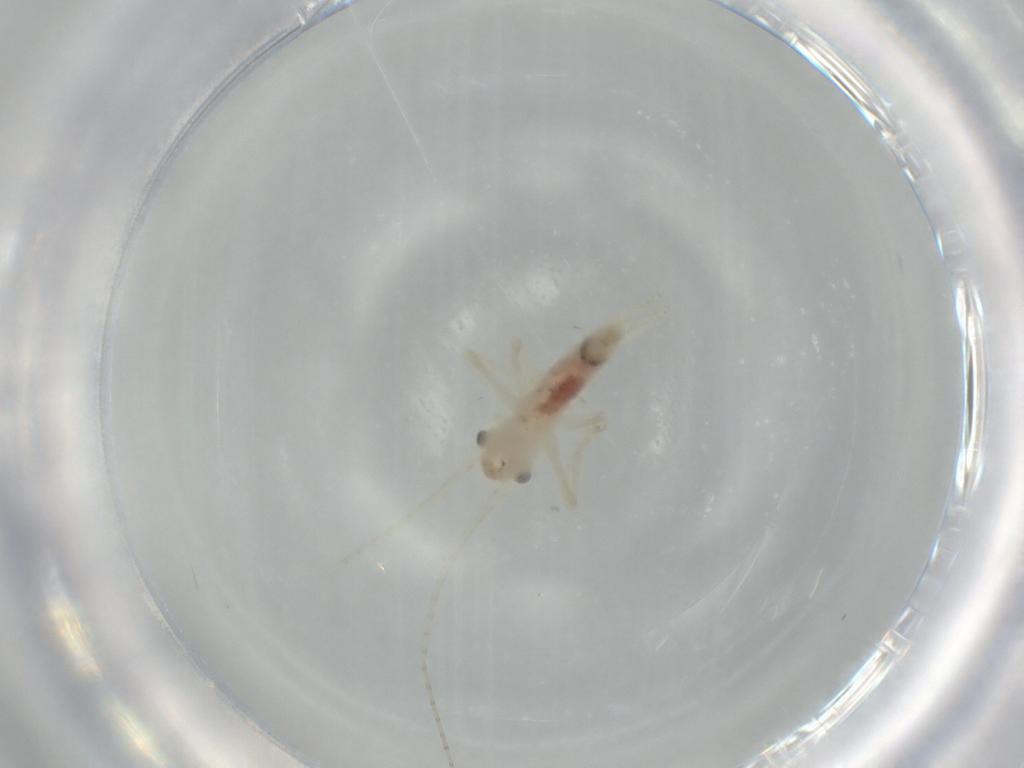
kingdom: Animalia
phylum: Arthropoda
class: Insecta
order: Orthoptera
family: Trigonidiidae
